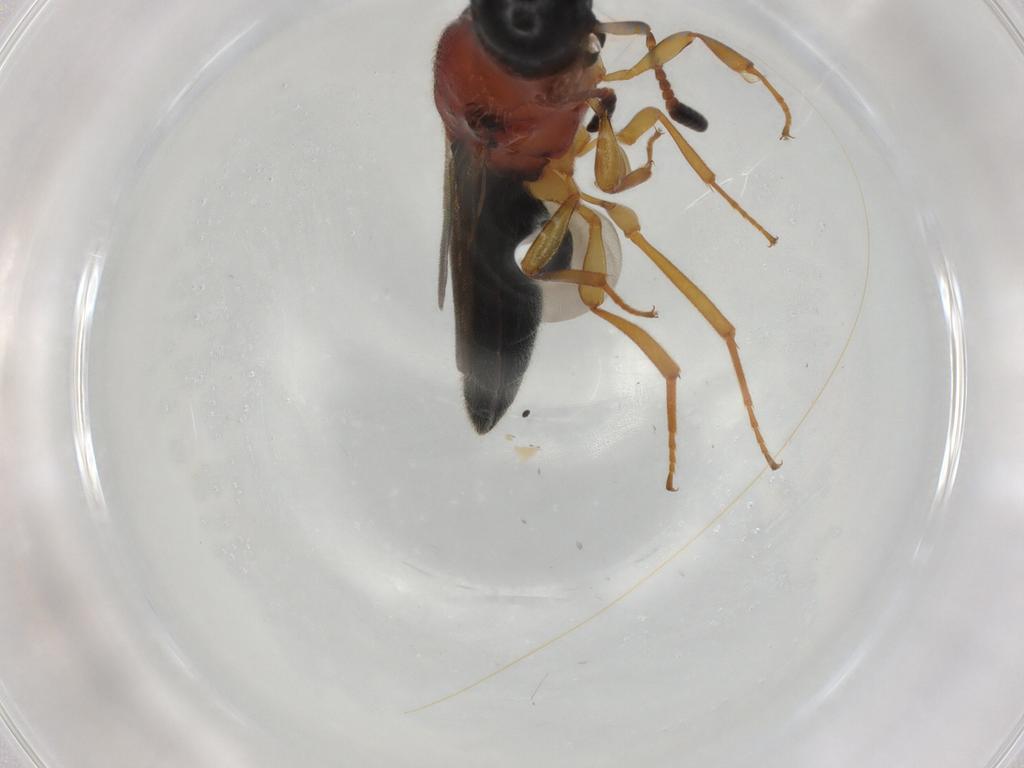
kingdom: Animalia
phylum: Arthropoda
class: Insecta
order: Hymenoptera
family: Scelionidae
